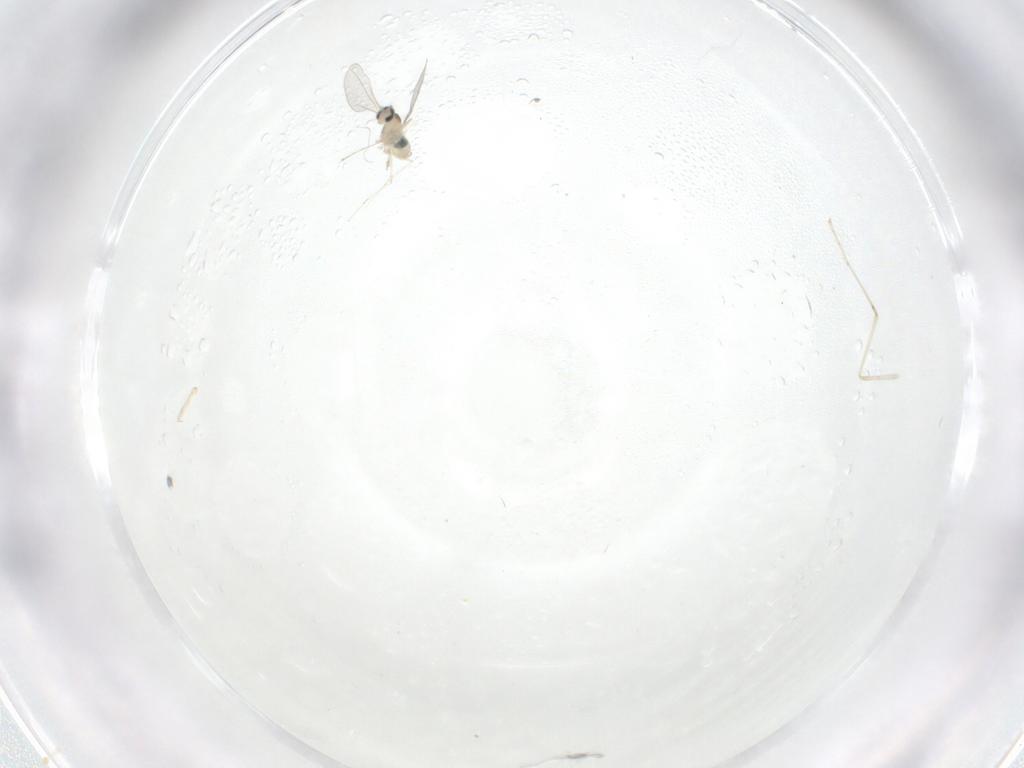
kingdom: Animalia
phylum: Arthropoda
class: Insecta
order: Diptera
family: Cecidomyiidae
